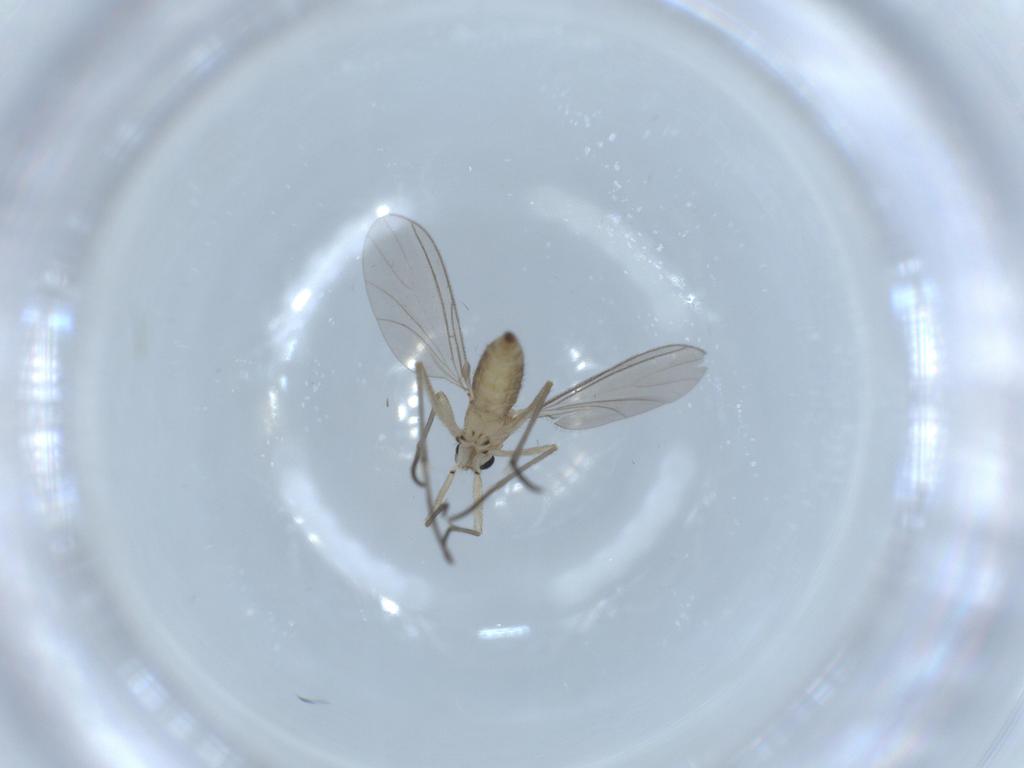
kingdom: Animalia
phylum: Arthropoda
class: Insecta
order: Diptera
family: Sciaridae
